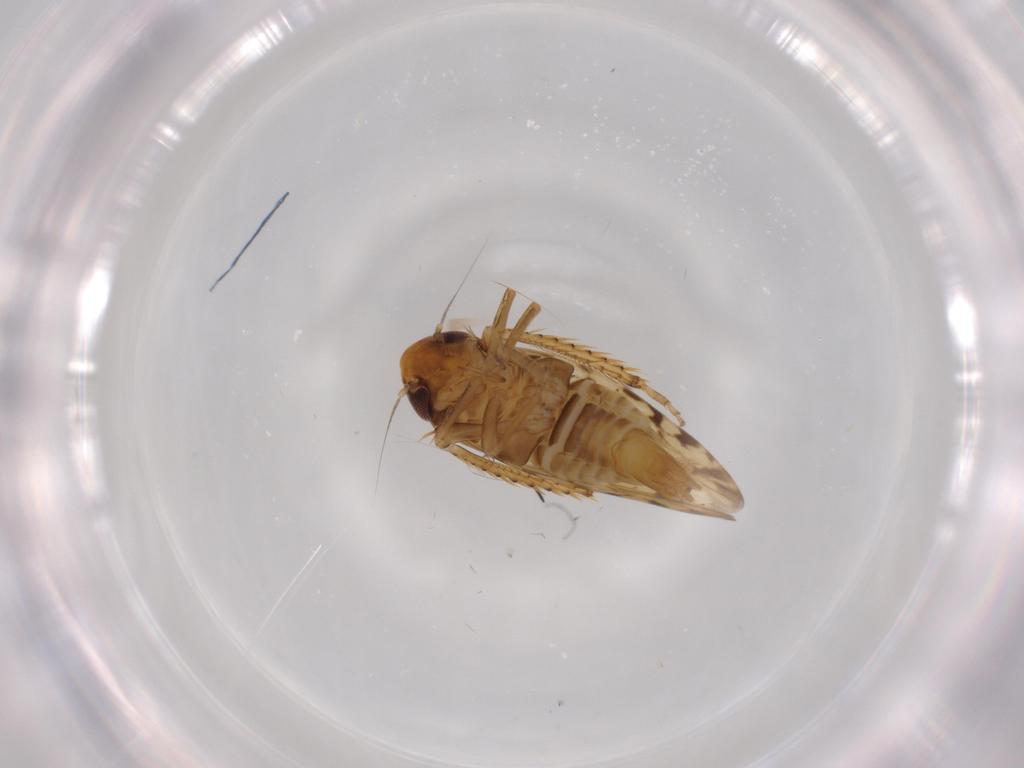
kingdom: Animalia
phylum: Arthropoda
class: Insecta
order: Hemiptera
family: Cicadellidae
